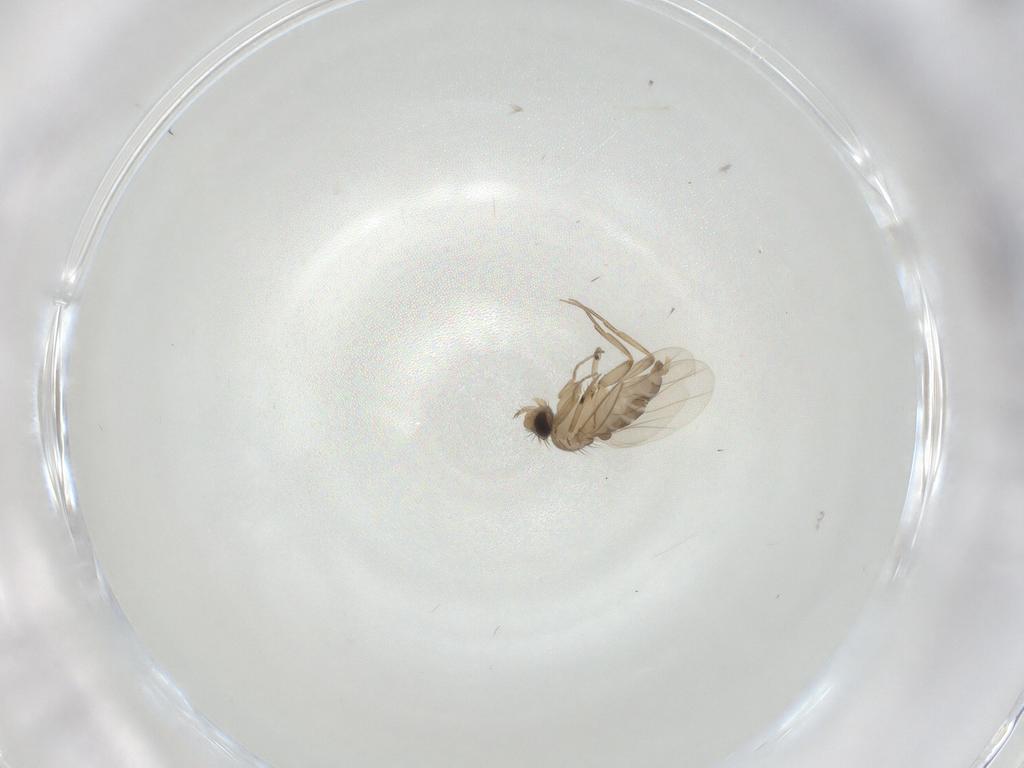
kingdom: Animalia
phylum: Arthropoda
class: Insecta
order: Diptera
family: Phoridae
